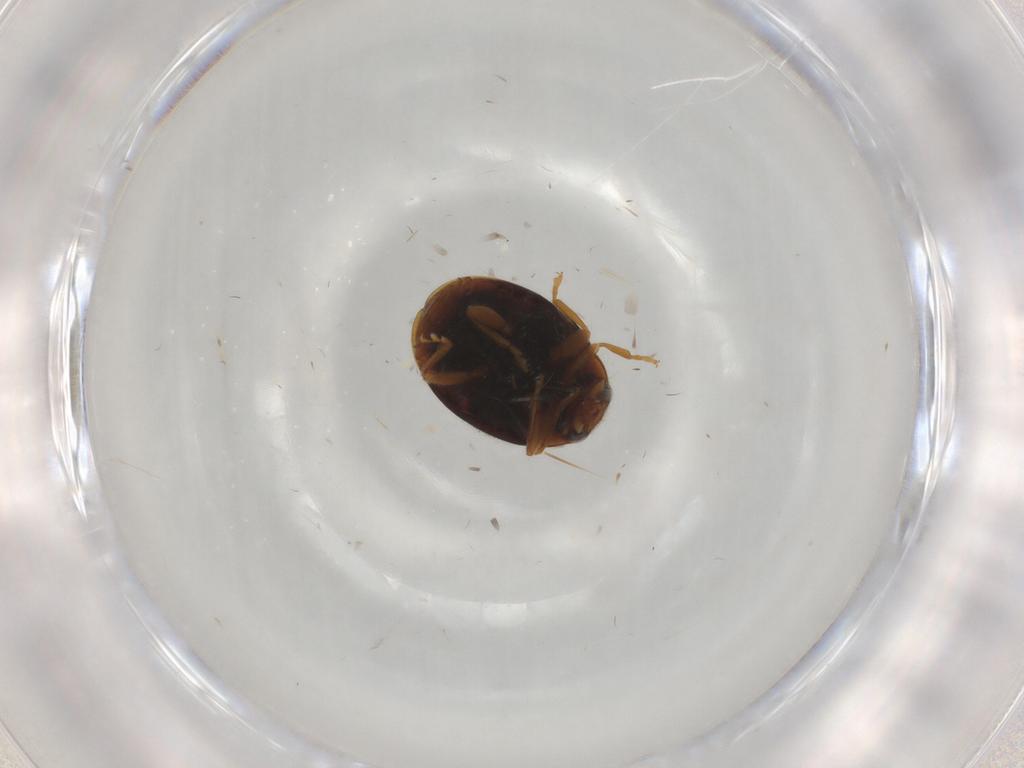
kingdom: Animalia
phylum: Arthropoda
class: Insecta
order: Coleoptera
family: Coccinellidae
